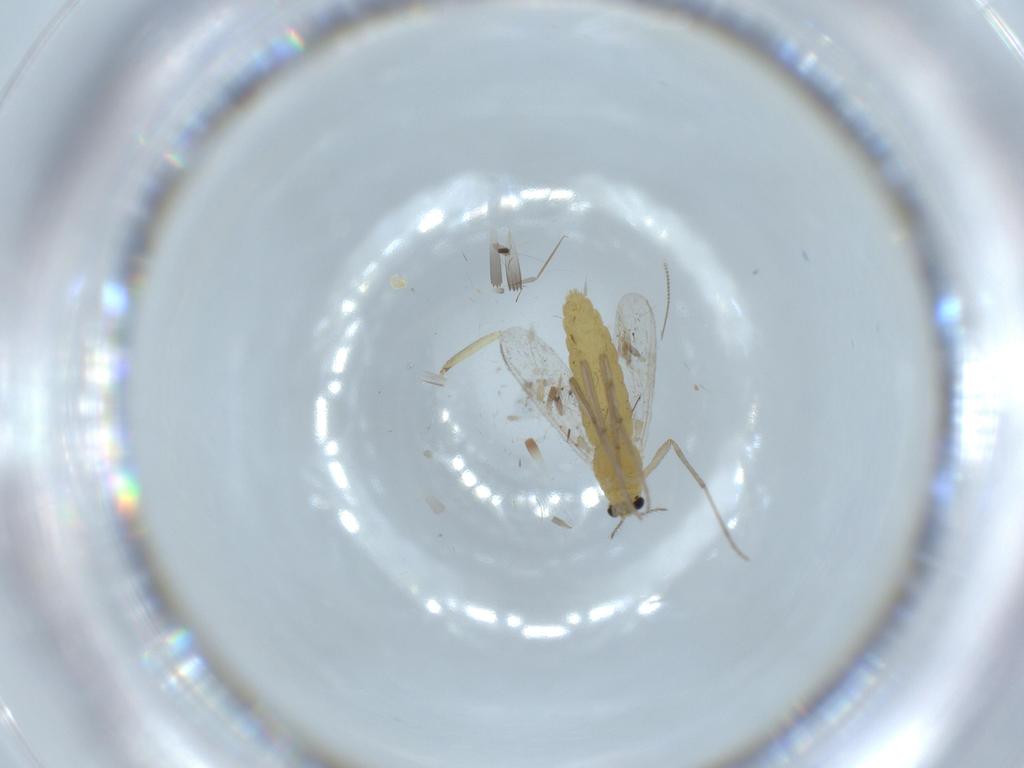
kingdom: Animalia
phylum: Arthropoda
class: Insecta
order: Diptera
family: Chironomidae
